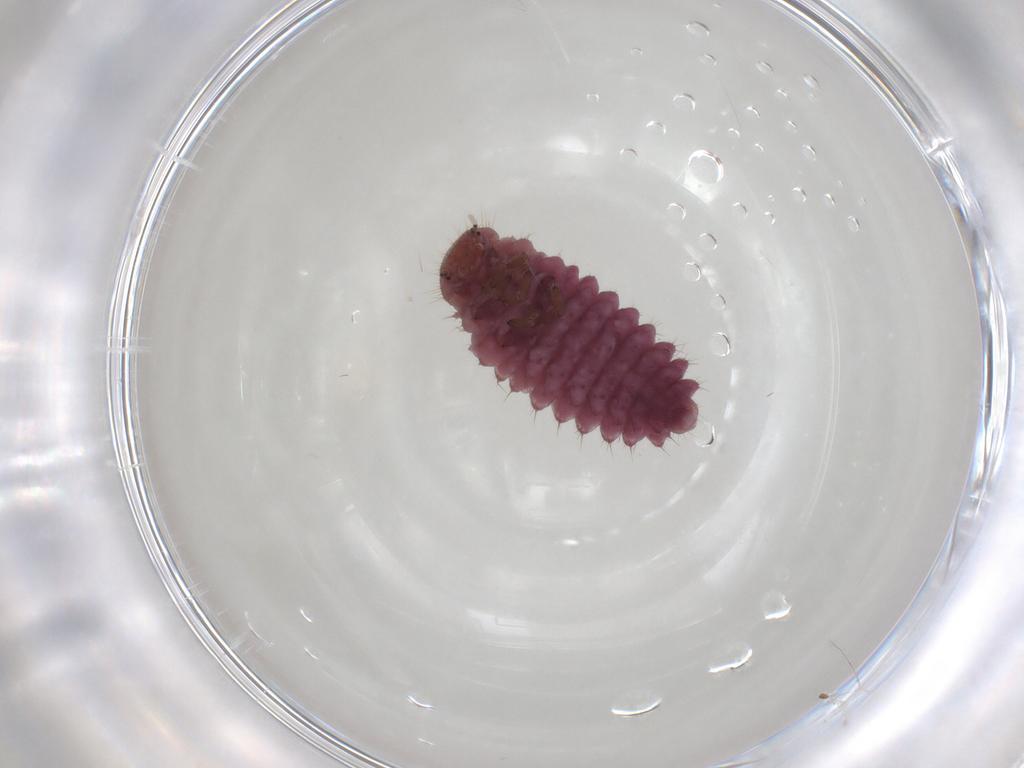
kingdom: Animalia
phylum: Arthropoda
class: Insecta
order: Coleoptera
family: Coccinellidae
